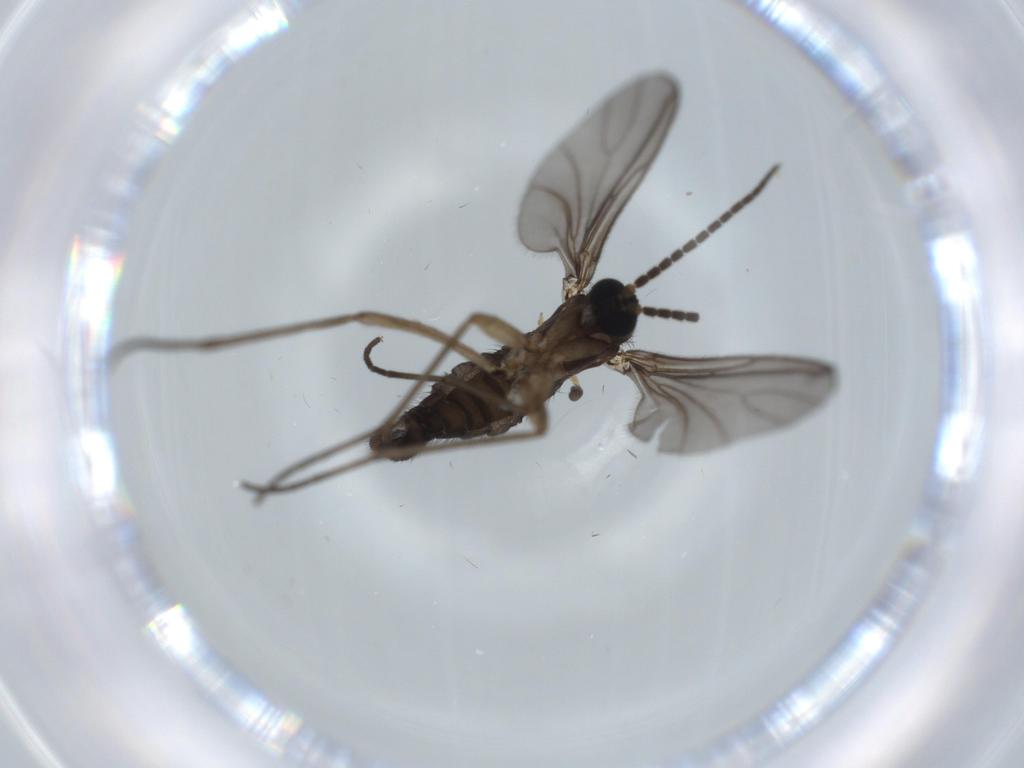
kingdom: Animalia
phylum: Arthropoda
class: Insecta
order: Diptera
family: Sciaridae
